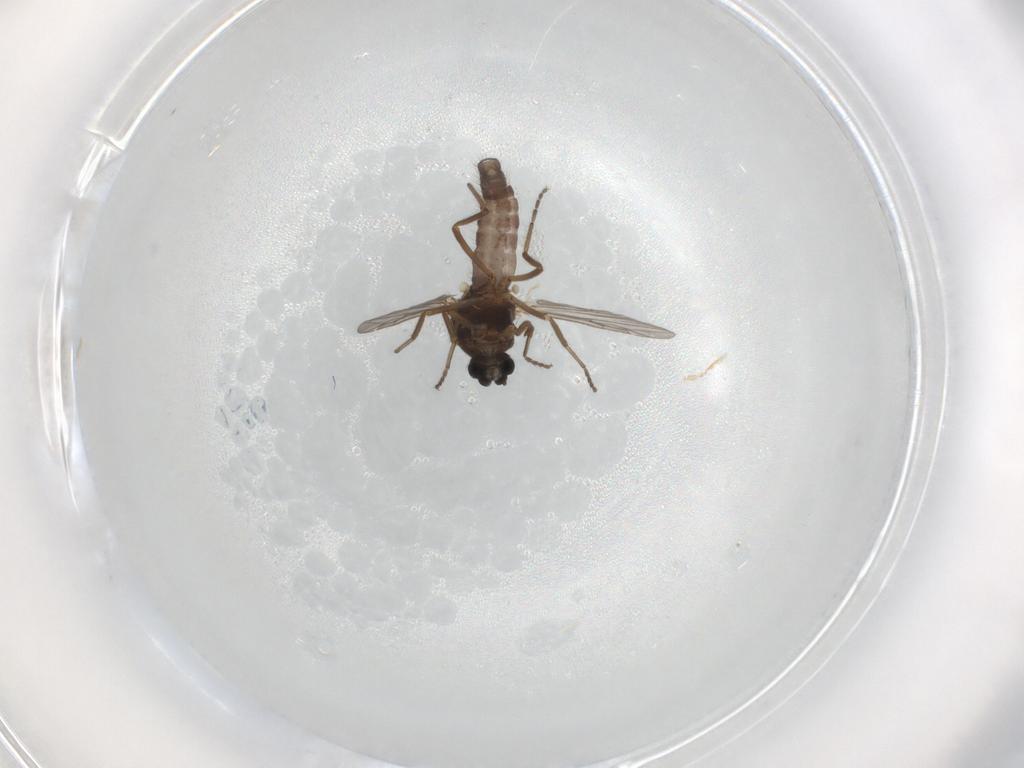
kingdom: Animalia
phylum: Arthropoda
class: Insecta
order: Diptera
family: Ceratopogonidae
